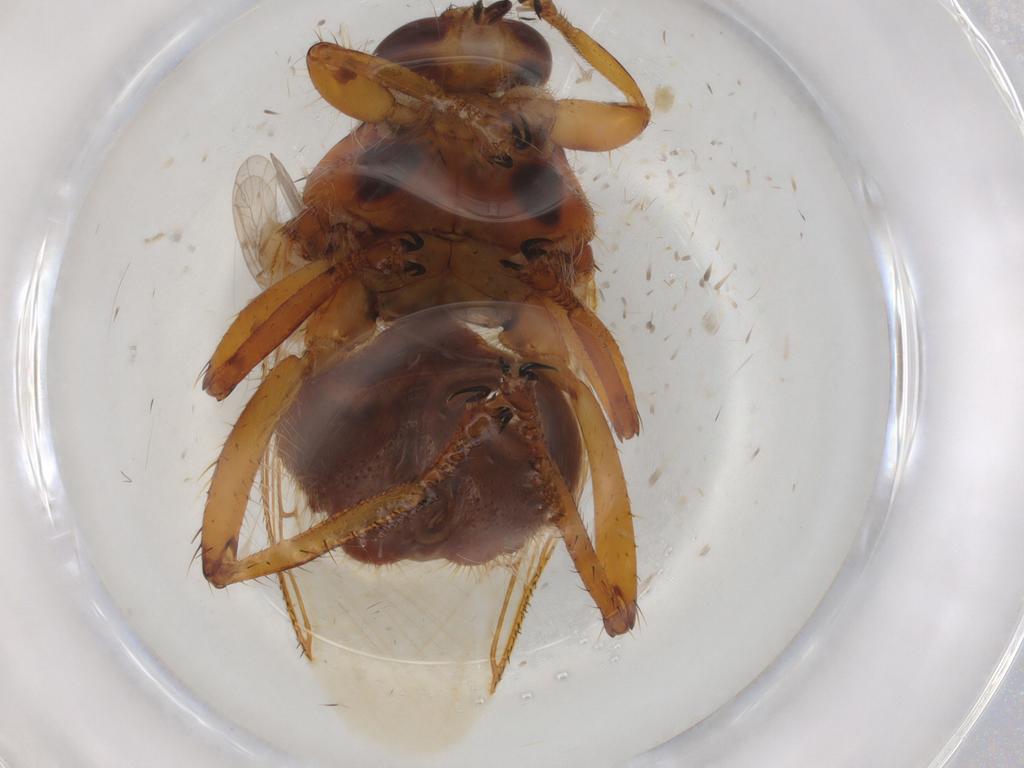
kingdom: Animalia
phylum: Arthropoda
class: Insecta
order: Diptera
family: Hippoboscidae
